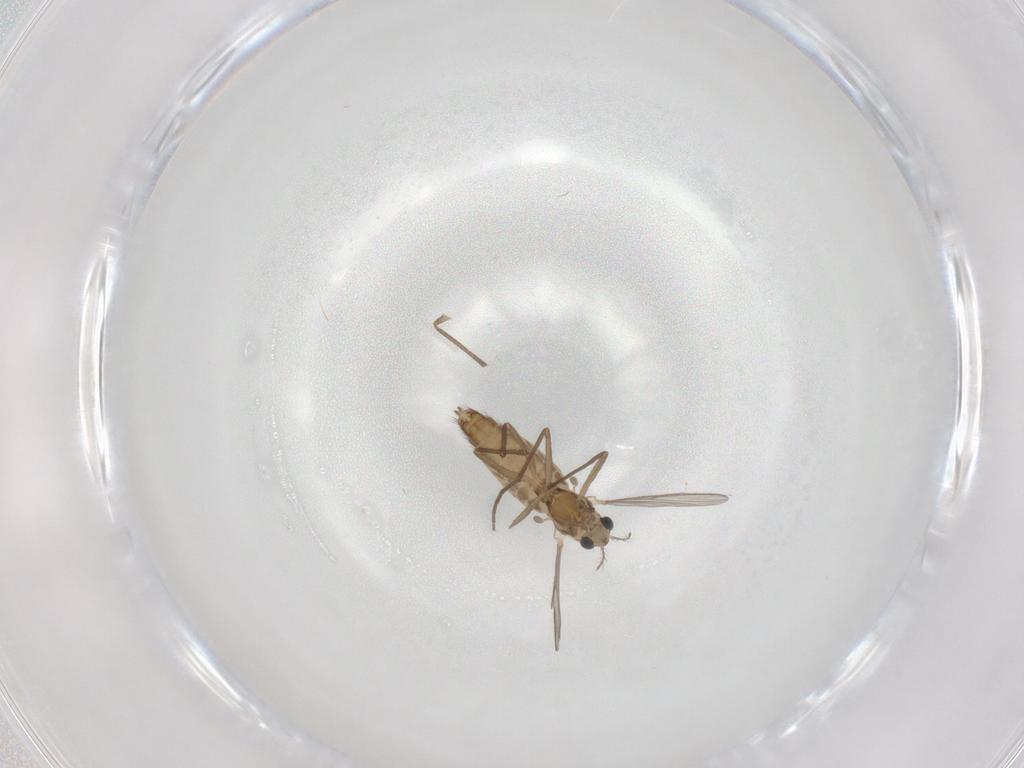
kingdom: Animalia
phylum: Arthropoda
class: Insecta
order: Diptera
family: Chironomidae
